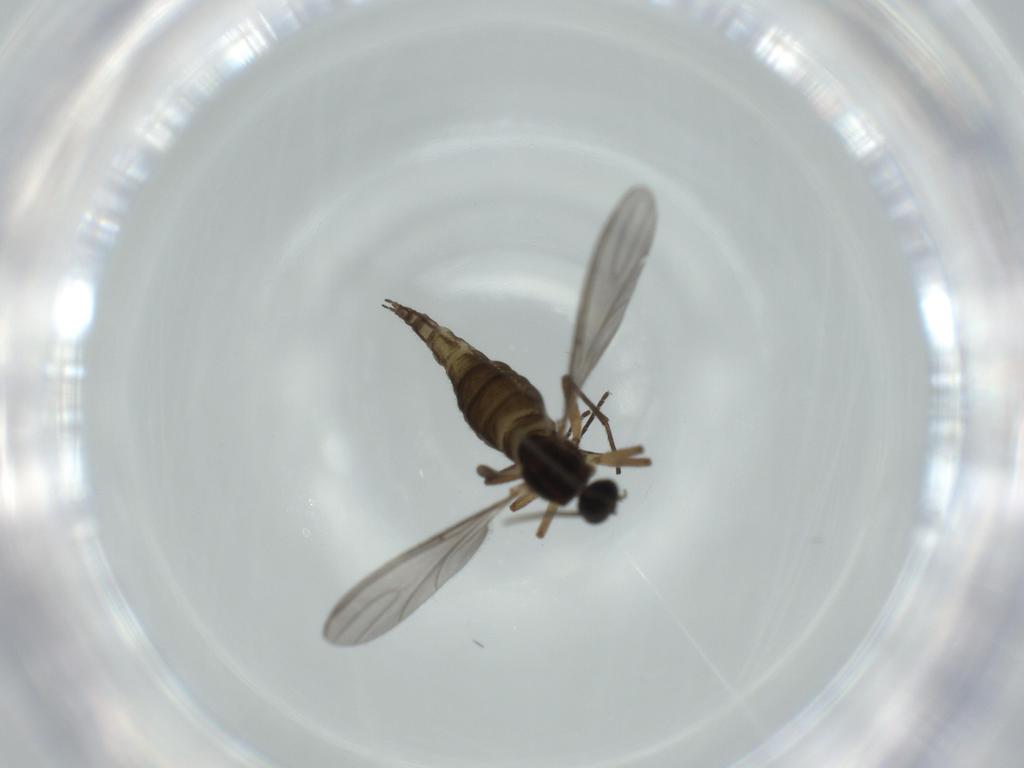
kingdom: Animalia
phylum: Arthropoda
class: Insecta
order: Diptera
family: Sciaridae
